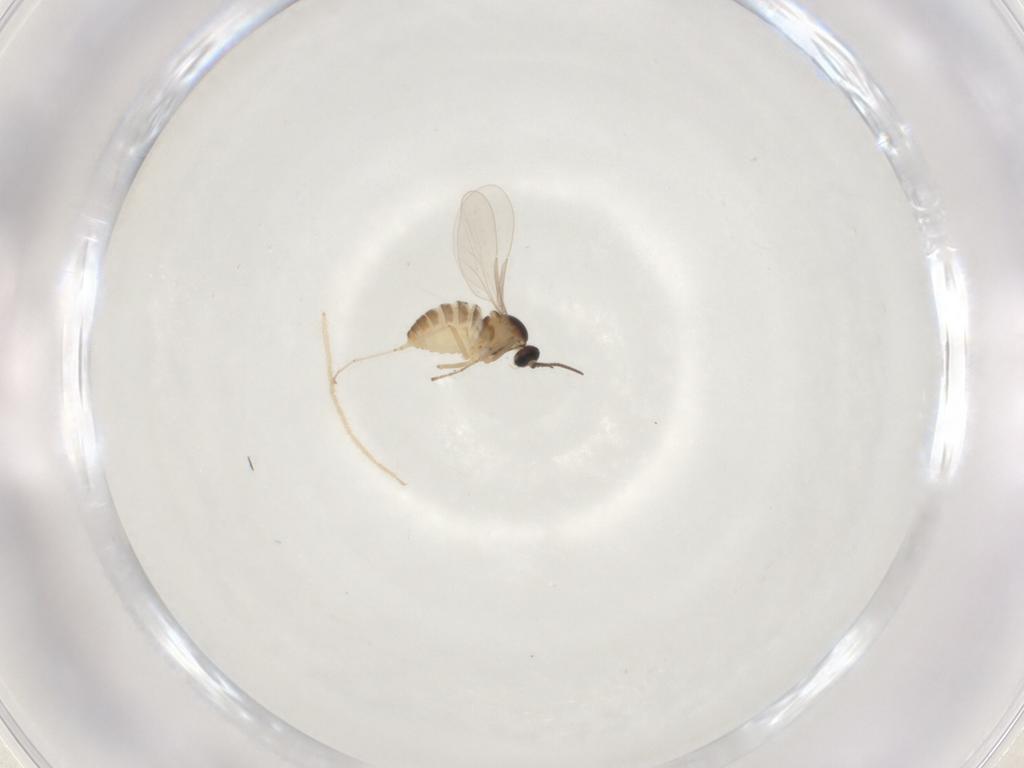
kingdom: Animalia
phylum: Arthropoda
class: Insecta
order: Diptera
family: Cecidomyiidae
